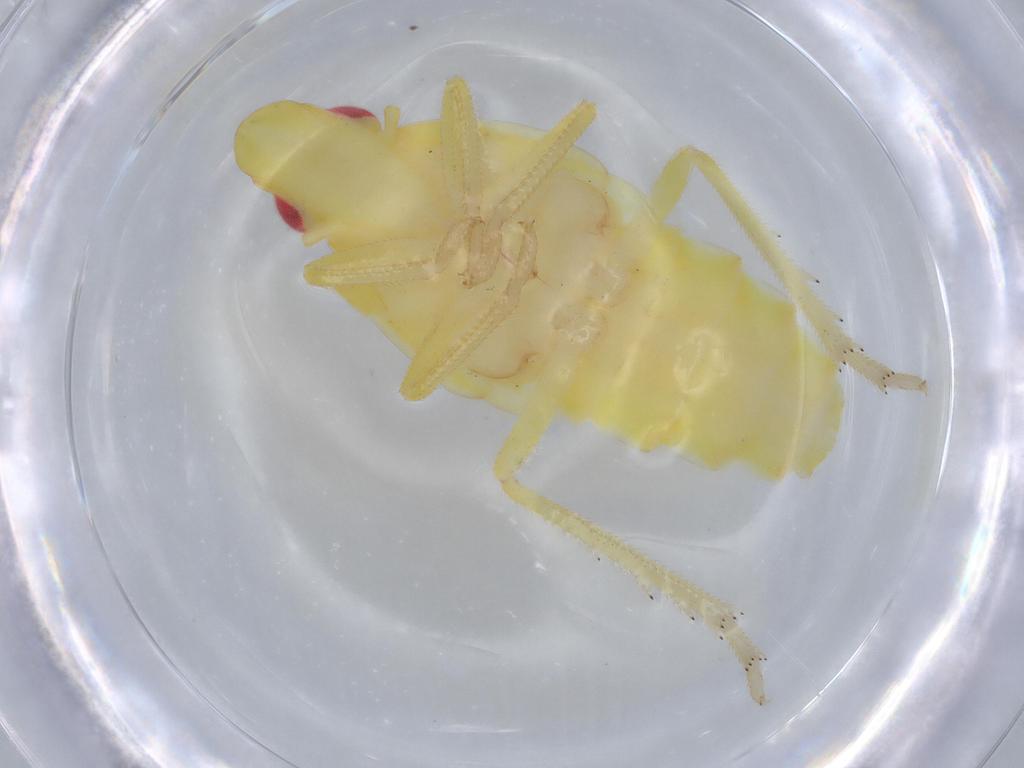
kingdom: Animalia
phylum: Arthropoda
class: Insecta
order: Hemiptera
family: Tropiduchidae
